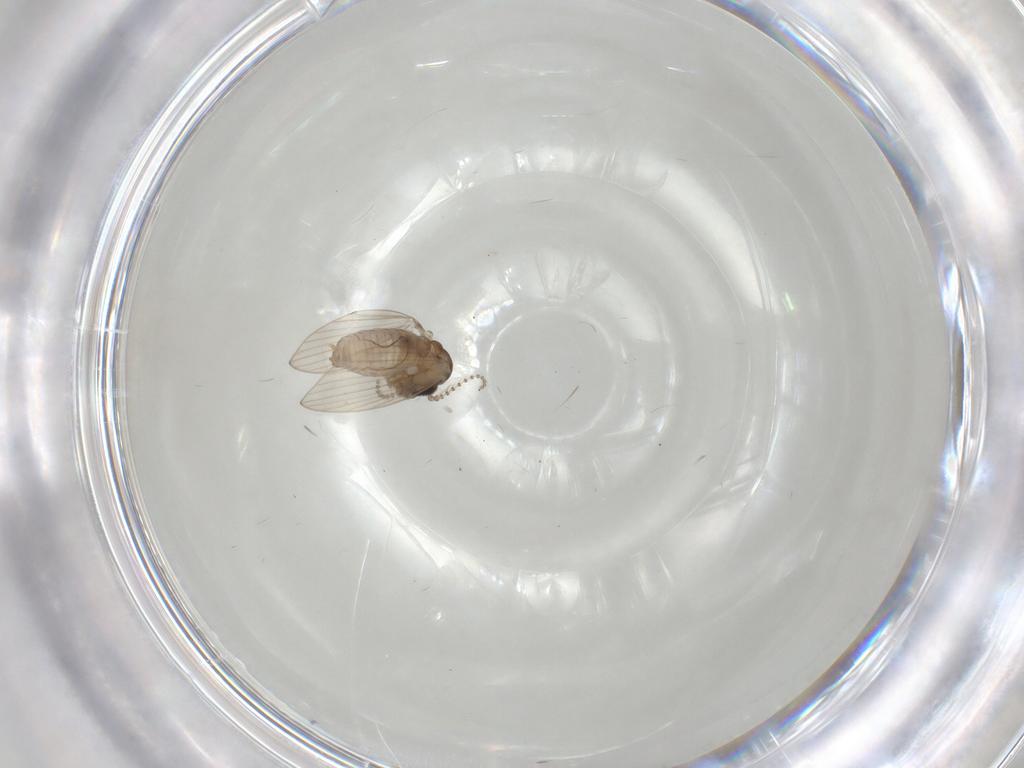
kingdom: Animalia
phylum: Arthropoda
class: Insecta
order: Diptera
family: Psychodidae
